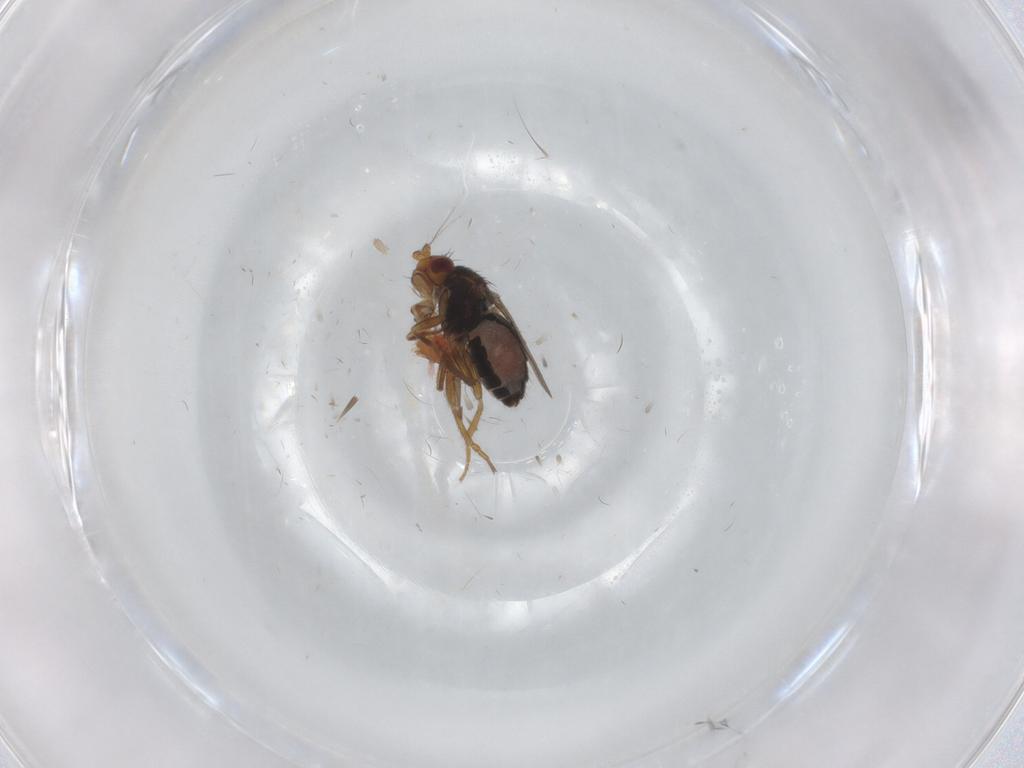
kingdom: Animalia
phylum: Arthropoda
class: Insecta
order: Diptera
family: Sphaeroceridae
